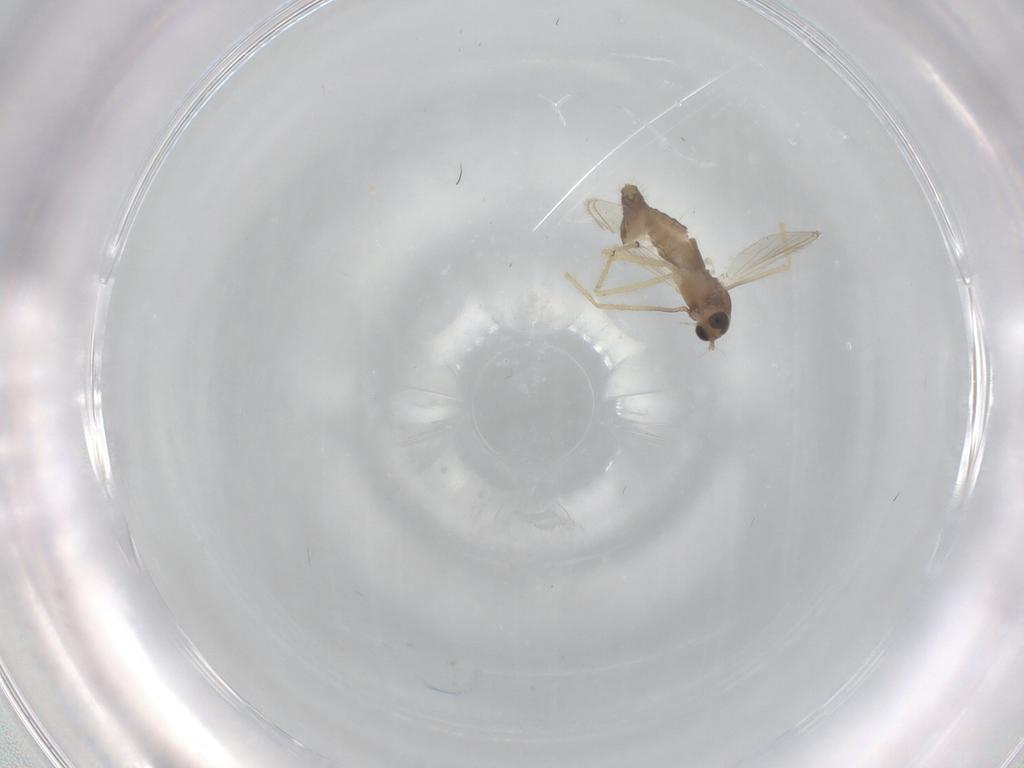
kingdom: Animalia
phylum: Arthropoda
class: Insecta
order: Diptera
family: Chironomidae
